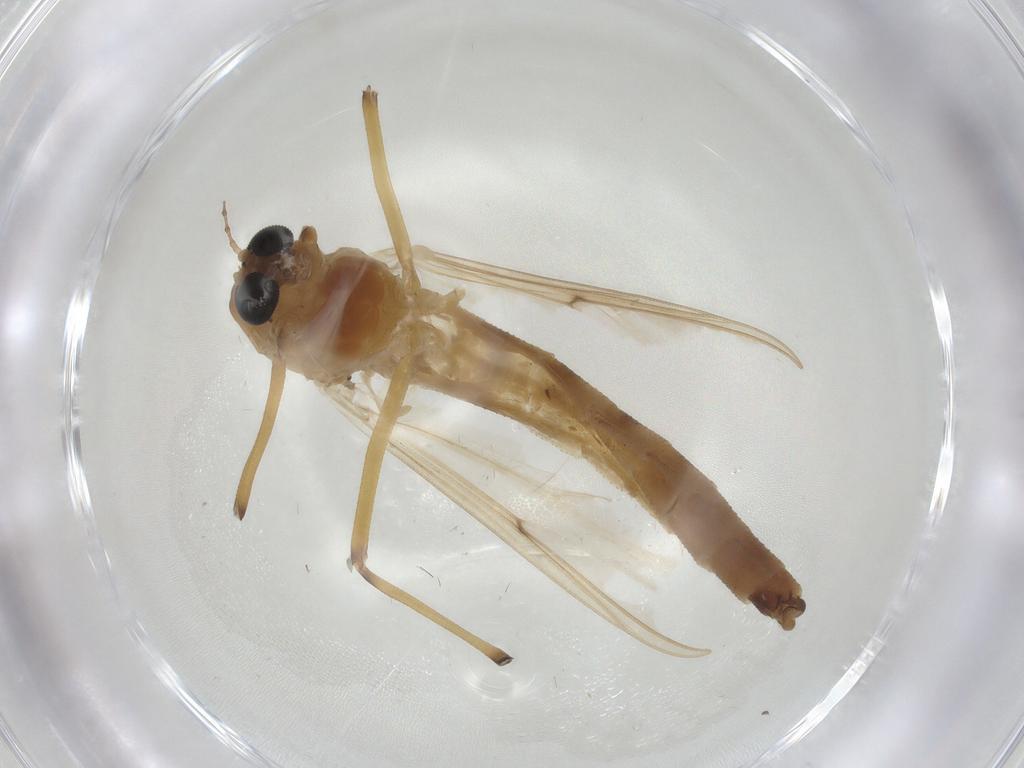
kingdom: Animalia
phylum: Arthropoda
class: Insecta
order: Diptera
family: Chironomidae
